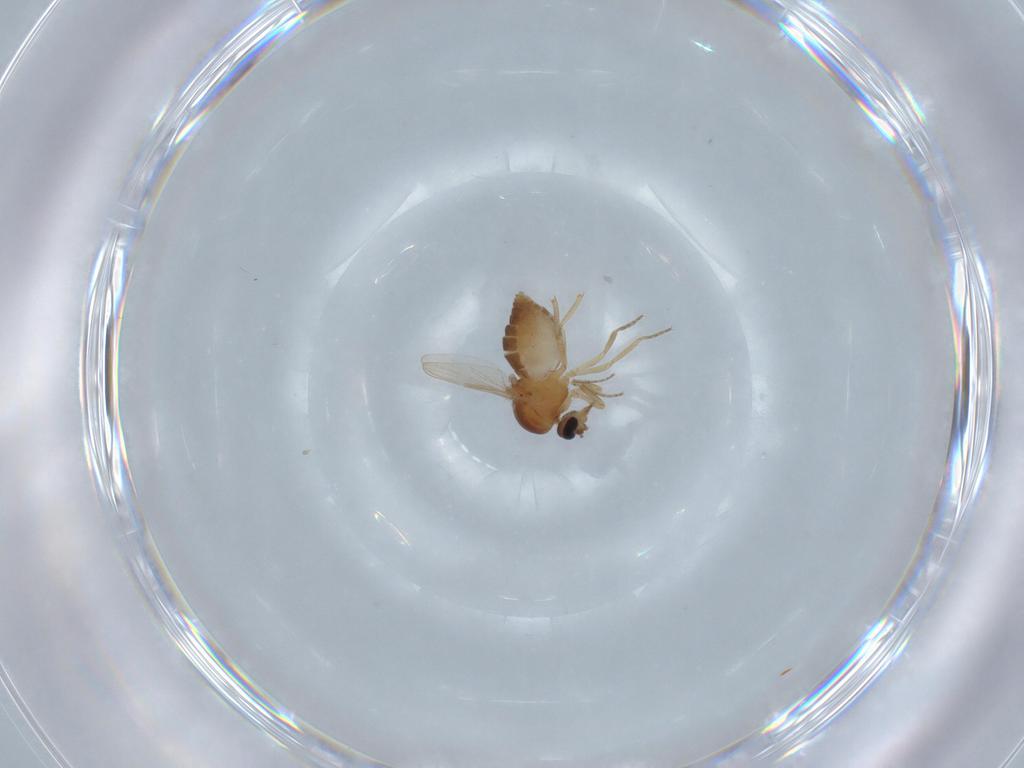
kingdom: Animalia
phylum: Arthropoda
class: Insecta
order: Diptera
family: Ceratopogonidae
